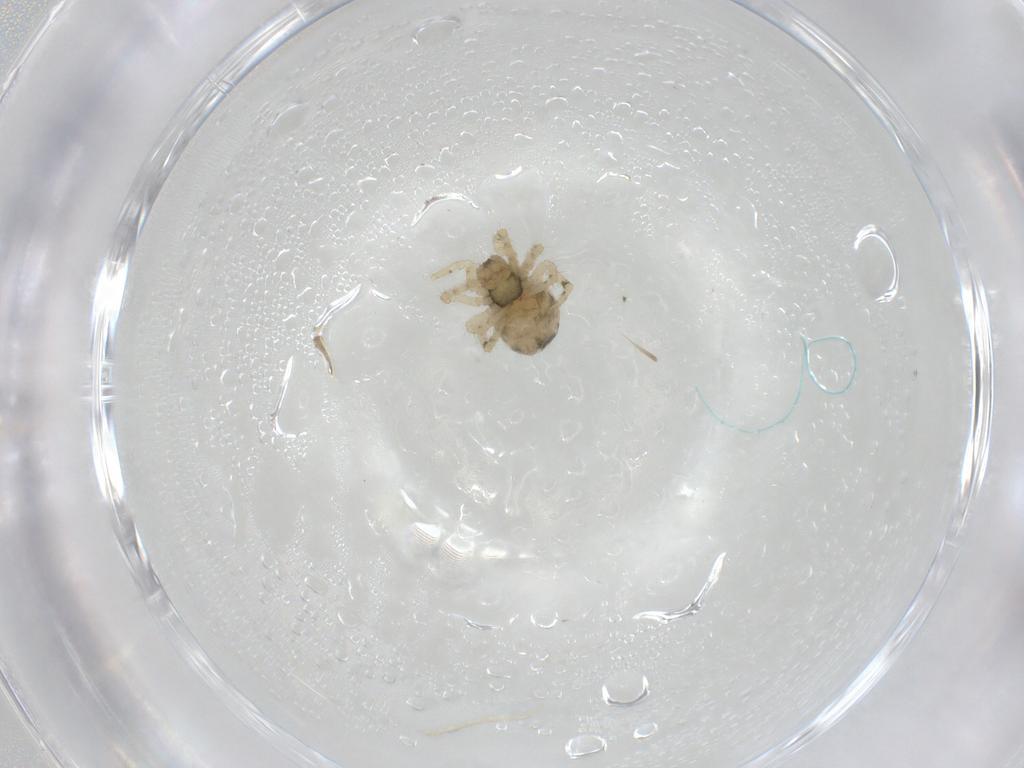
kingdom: Animalia
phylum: Arthropoda
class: Arachnida
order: Araneae
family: Theridiidae
